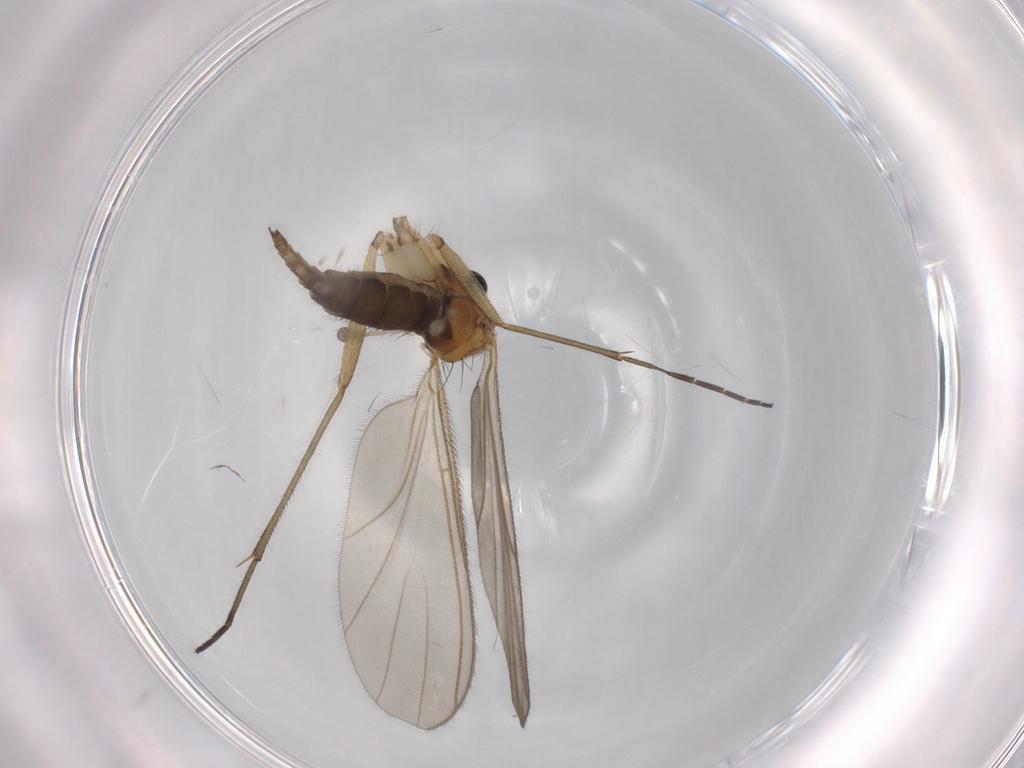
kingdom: Animalia
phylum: Arthropoda
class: Insecta
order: Diptera
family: Sciaridae
